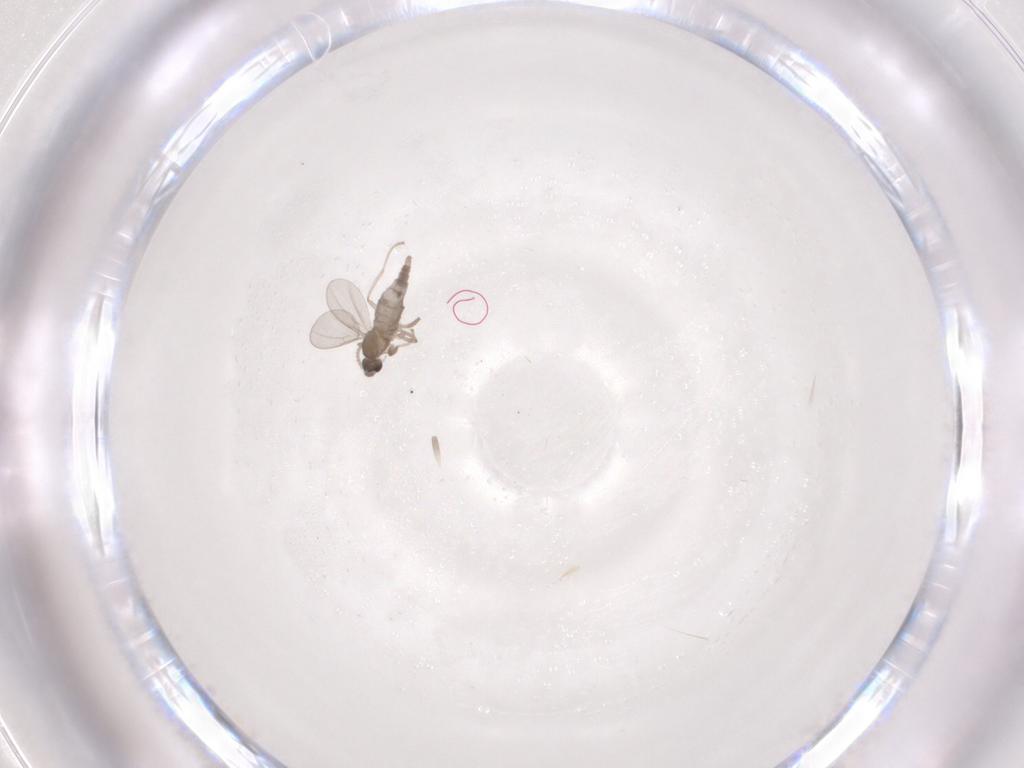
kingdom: Animalia
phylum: Arthropoda
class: Insecta
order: Diptera
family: Cecidomyiidae
